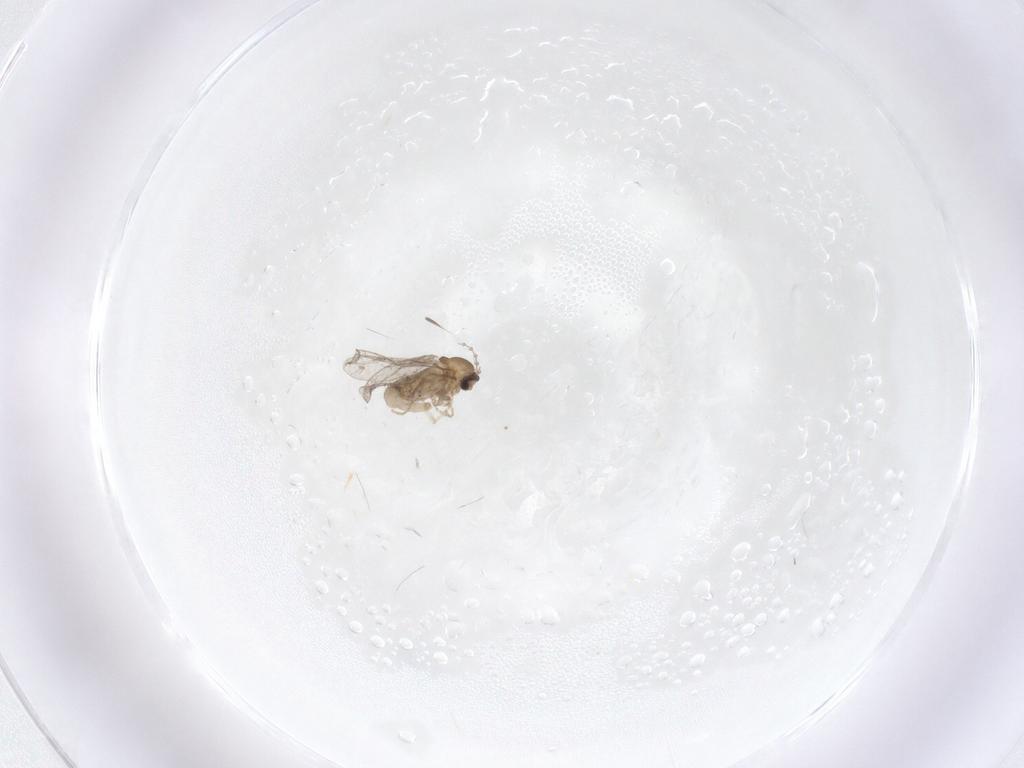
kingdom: Animalia
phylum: Arthropoda
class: Insecta
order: Diptera
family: Cecidomyiidae
